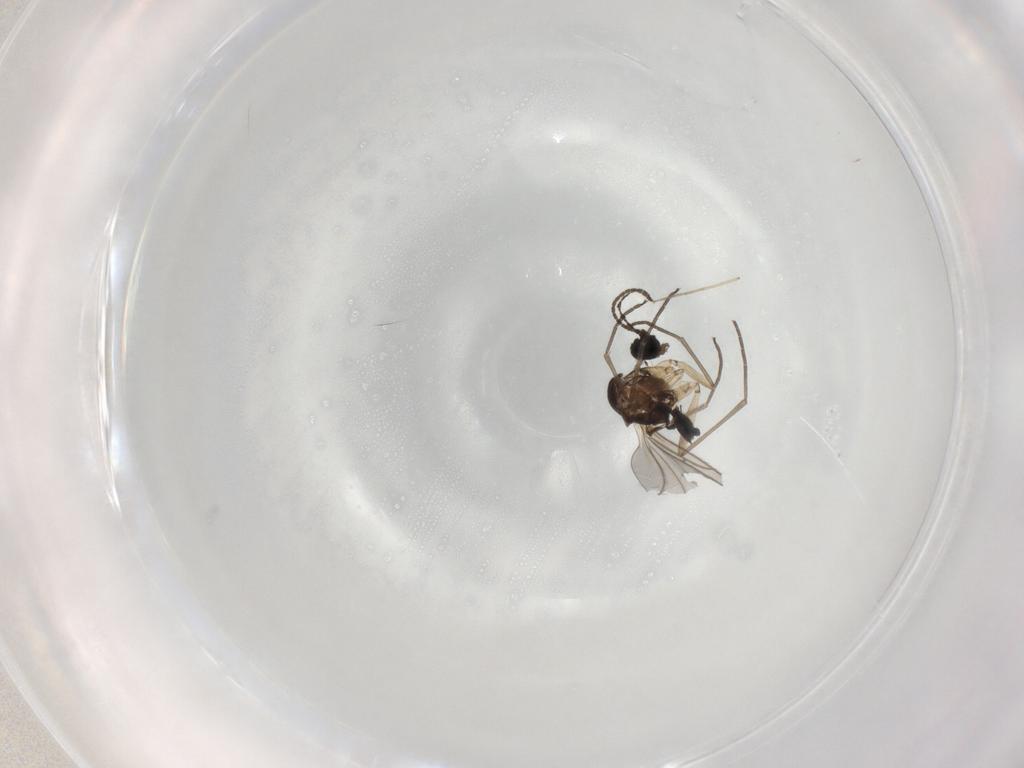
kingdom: Animalia
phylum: Arthropoda
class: Insecta
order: Diptera
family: Sciaridae
